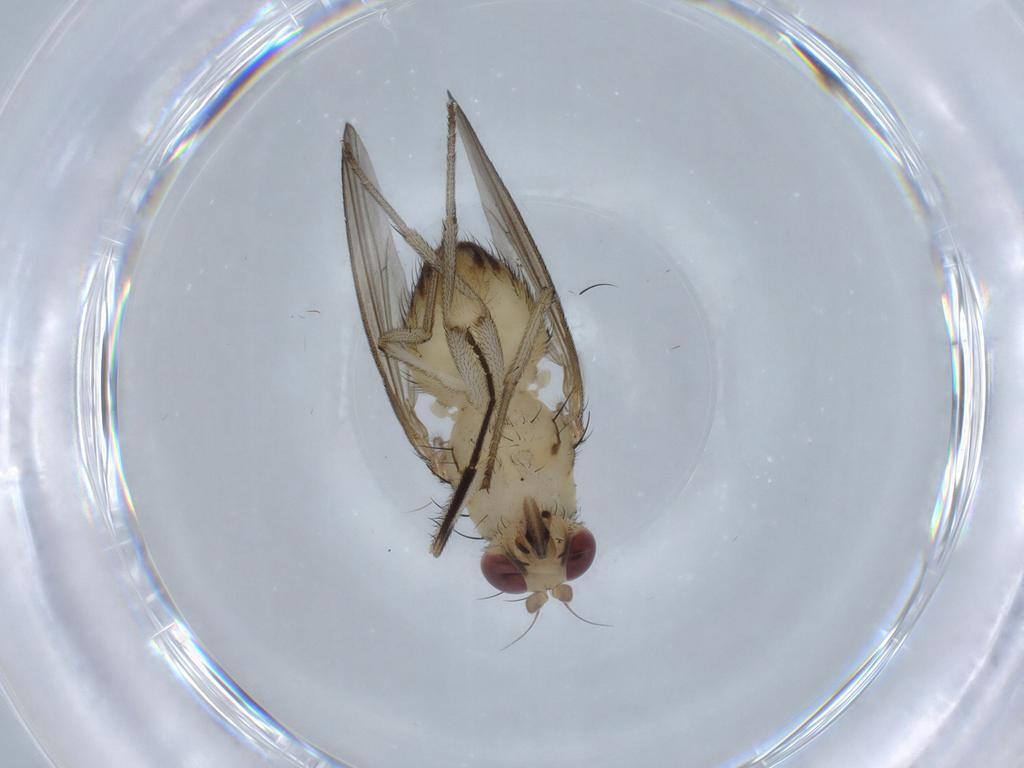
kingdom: Animalia
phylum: Arthropoda
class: Insecta
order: Diptera
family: Lauxaniidae
